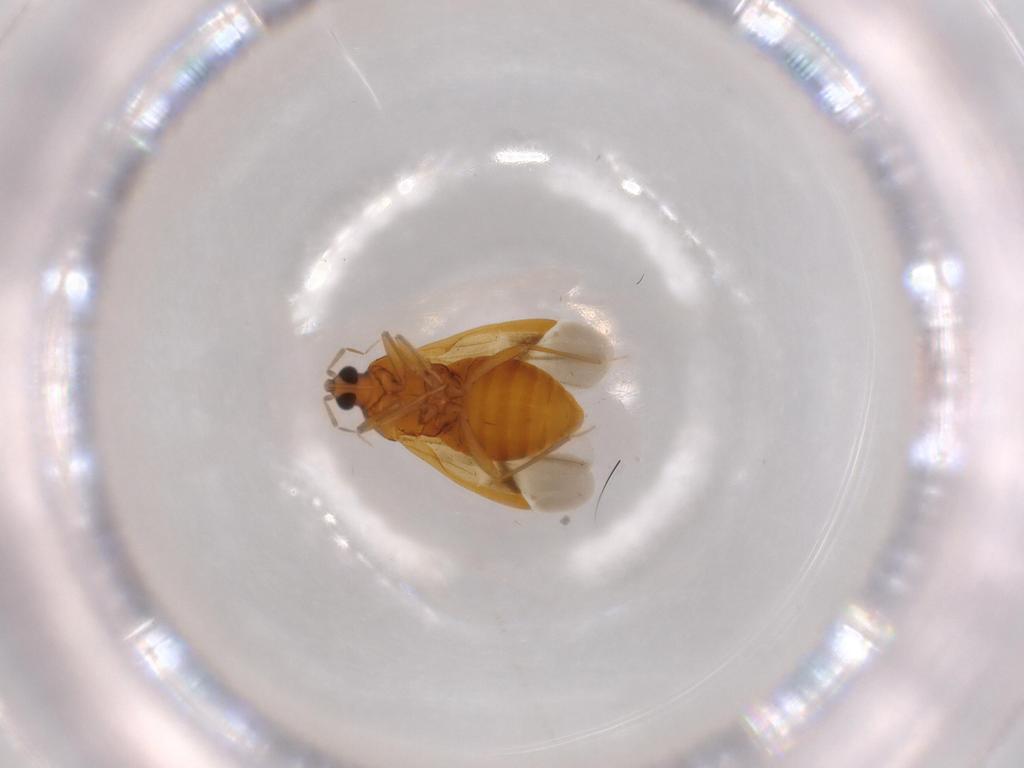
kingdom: Animalia
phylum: Arthropoda
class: Insecta
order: Hemiptera
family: Anthocoridae
